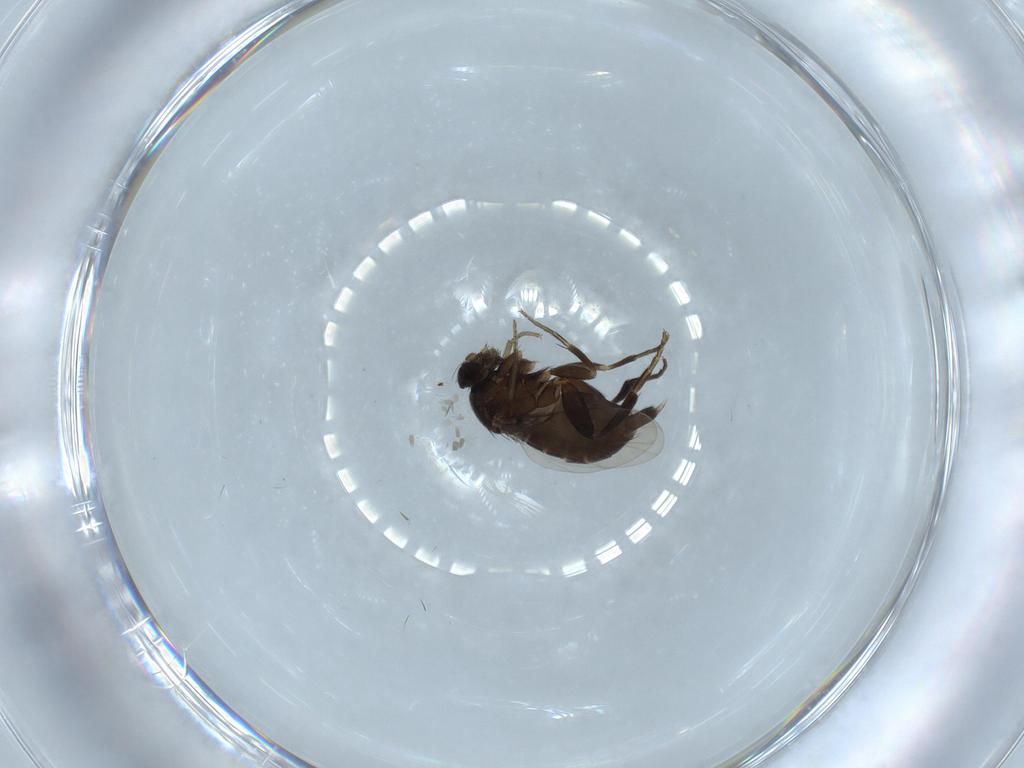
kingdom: Animalia
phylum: Arthropoda
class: Insecta
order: Diptera
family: Phoridae
